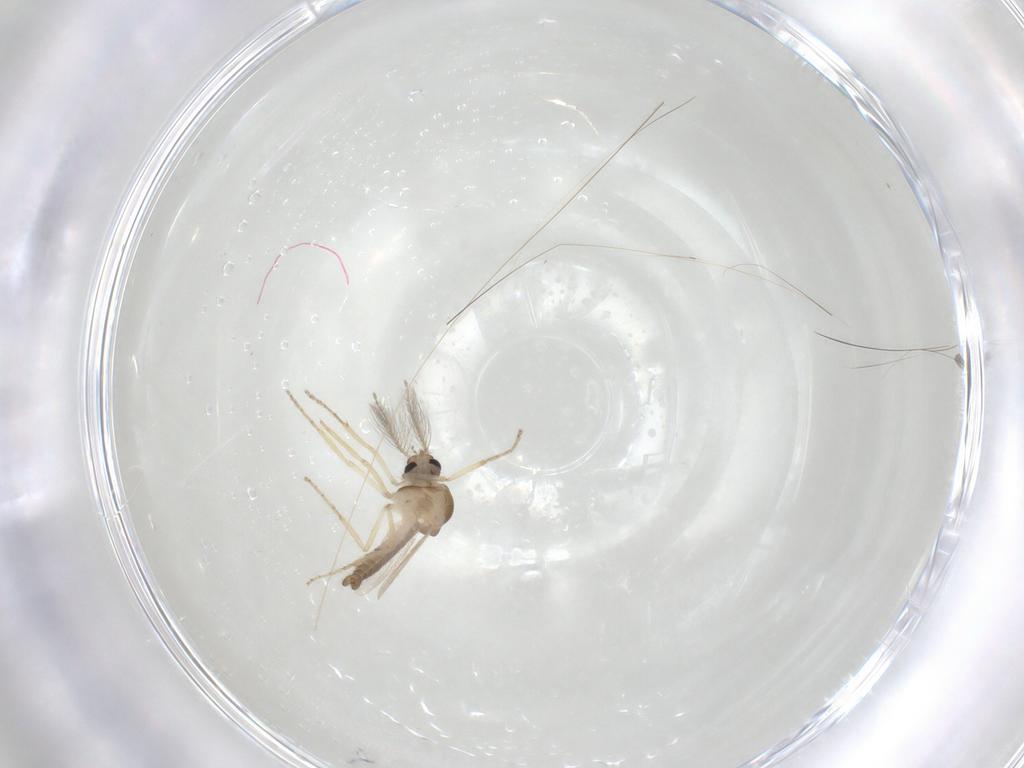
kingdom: Animalia
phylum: Arthropoda
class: Insecta
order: Diptera
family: Ceratopogonidae
